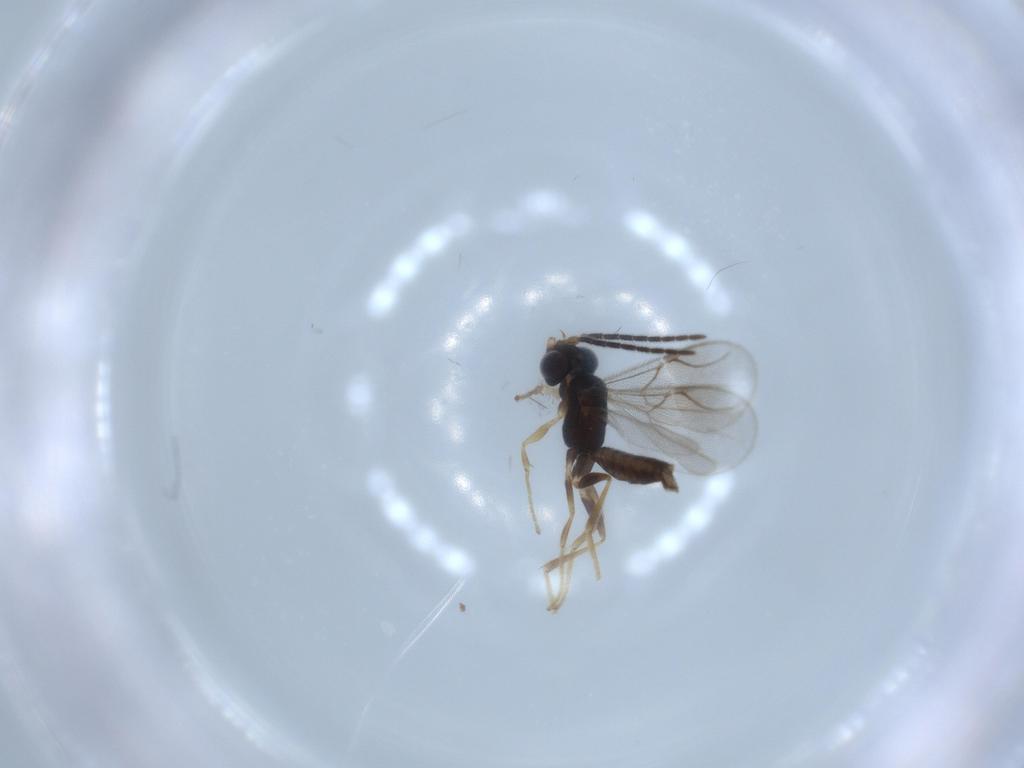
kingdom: Animalia
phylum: Arthropoda
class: Insecta
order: Hymenoptera
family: Dryinidae
